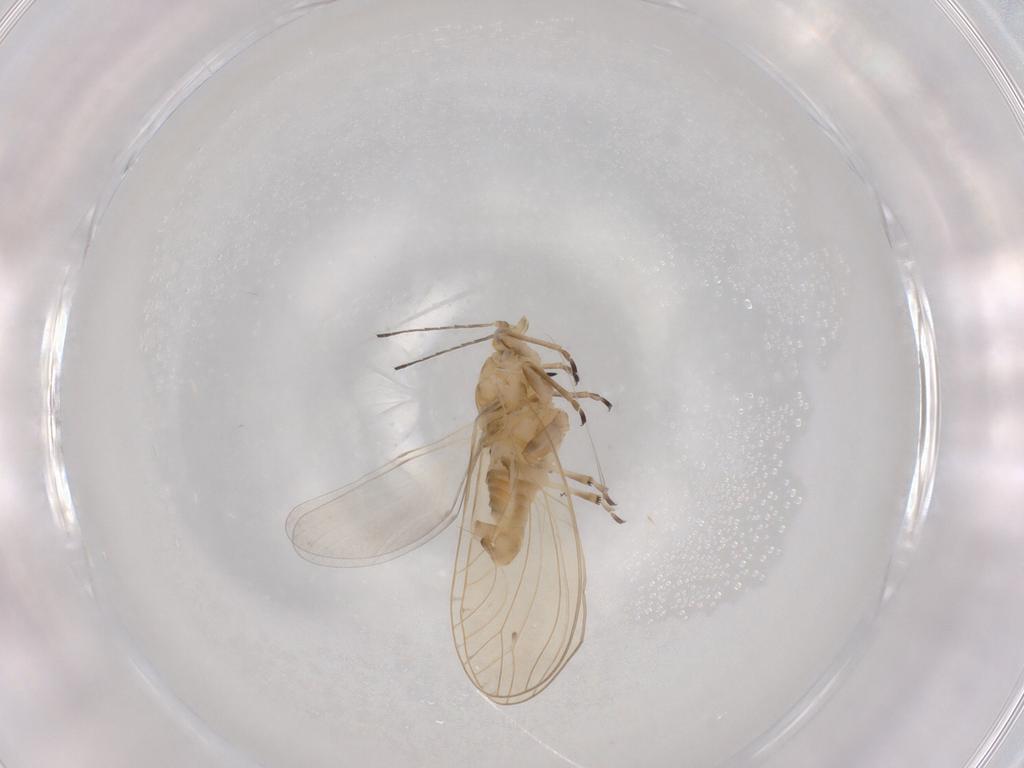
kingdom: Animalia
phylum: Arthropoda
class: Insecta
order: Hemiptera
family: Triozidae
